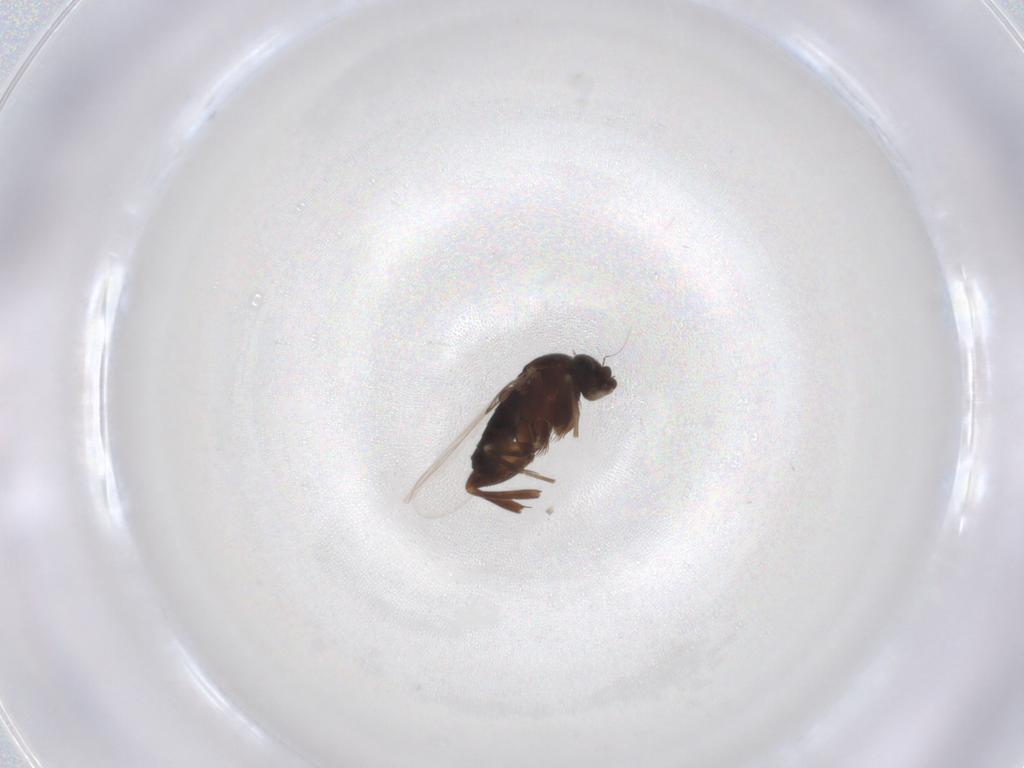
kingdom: Animalia
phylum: Arthropoda
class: Insecta
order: Diptera
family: Phoridae
